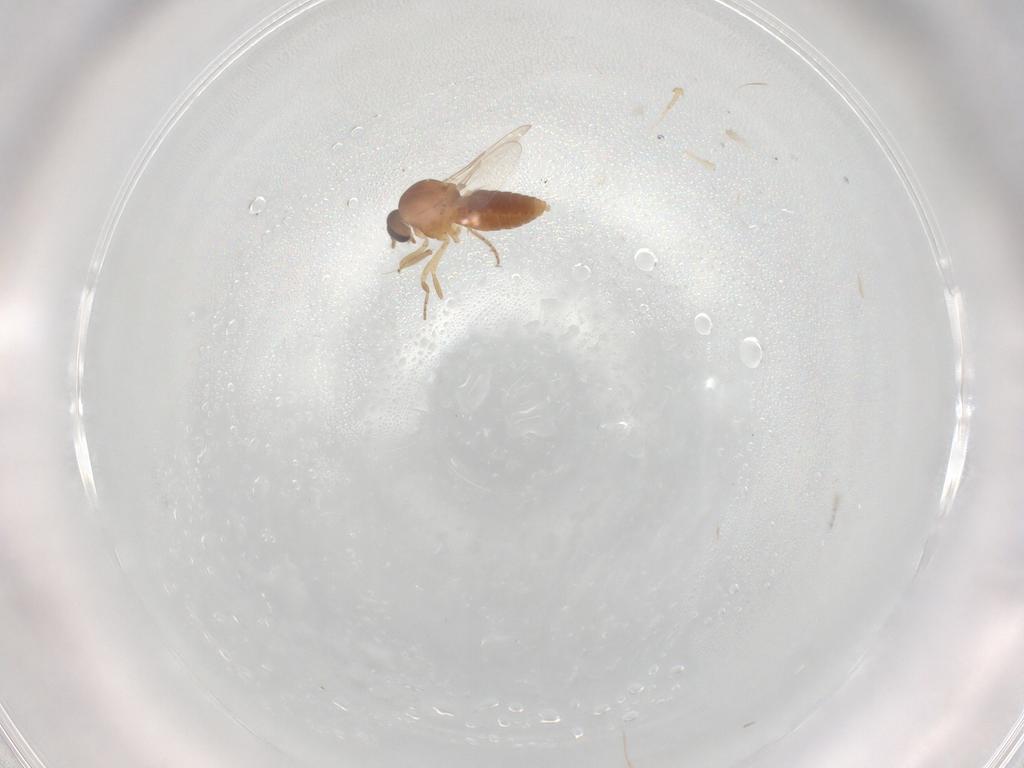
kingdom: Animalia
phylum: Arthropoda
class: Insecta
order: Diptera
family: Ceratopogonidae
